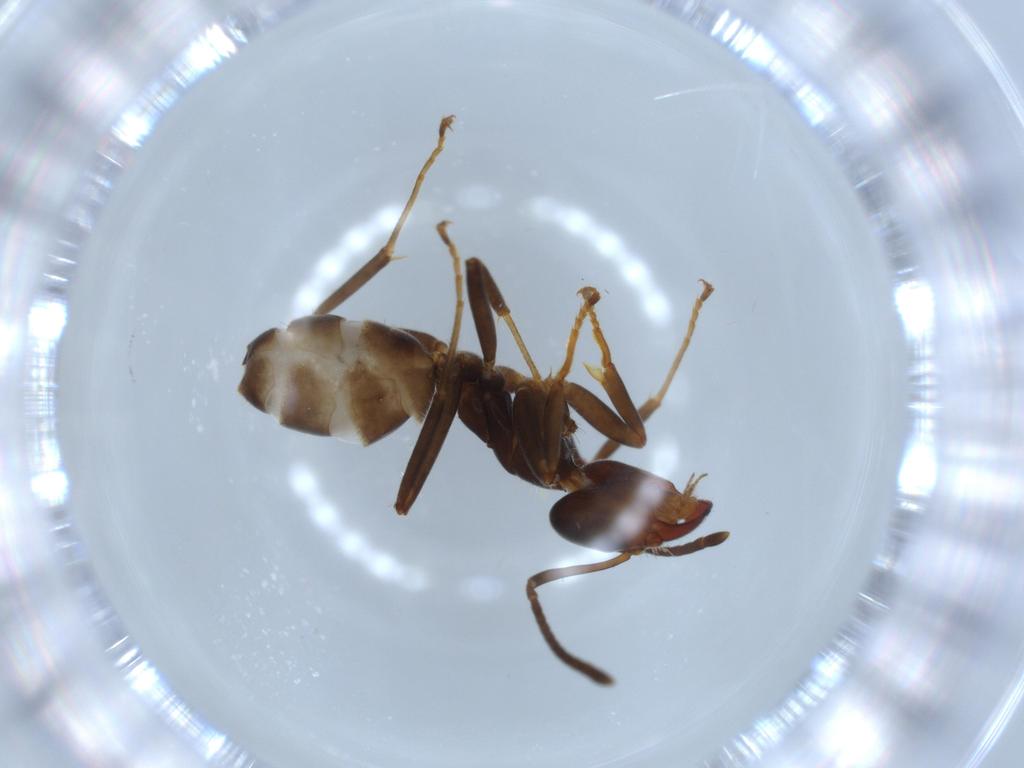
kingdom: Animalia
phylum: Arthropoda
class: Insecta
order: Hymenoptera
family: Formicidae
